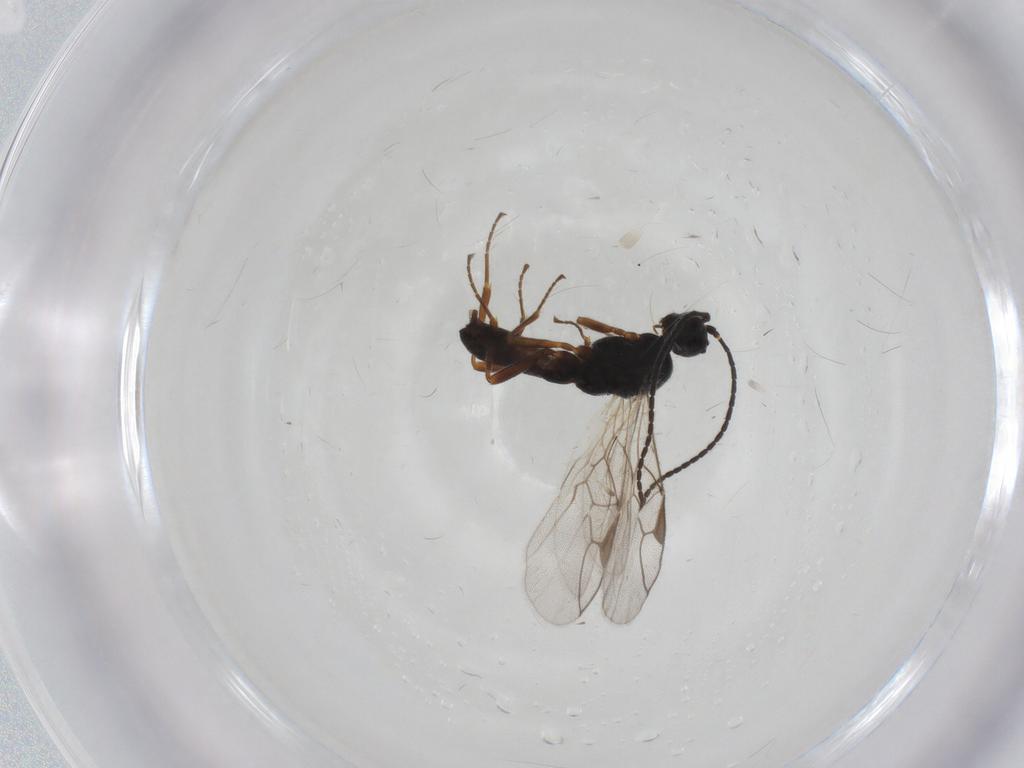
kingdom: Animalia
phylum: Arthropoda
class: Insecta
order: Hymenoptera
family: Braconidae
